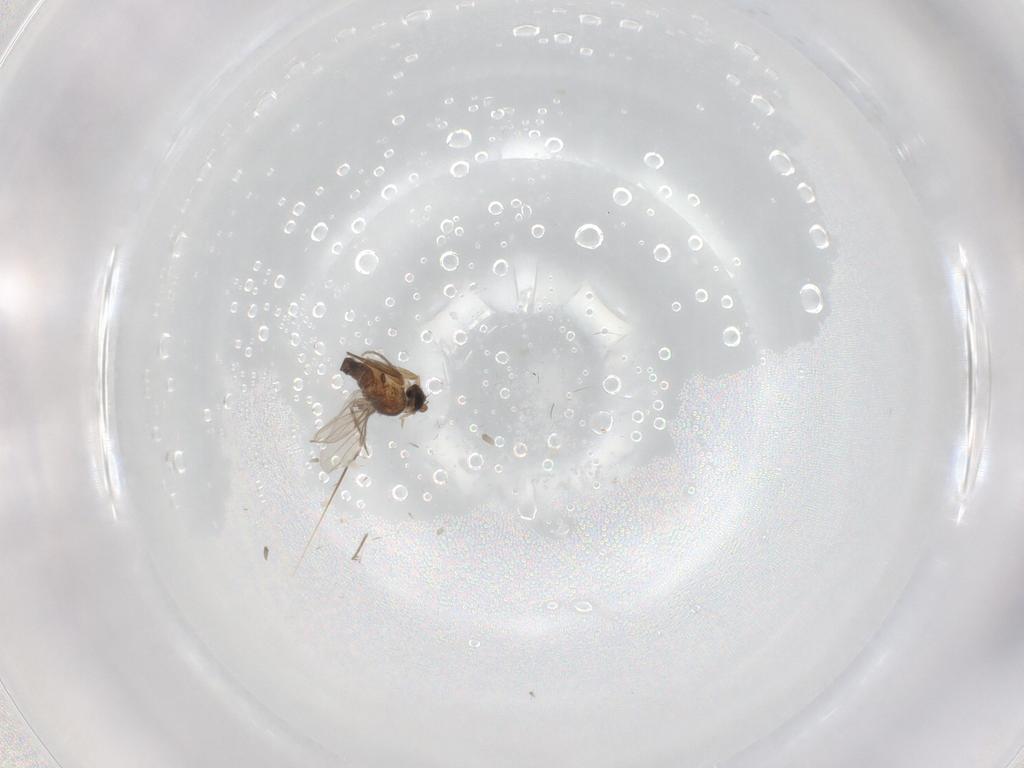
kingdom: Animalia
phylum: Arthropoda
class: Insecta
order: Diptera
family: Phoridae
